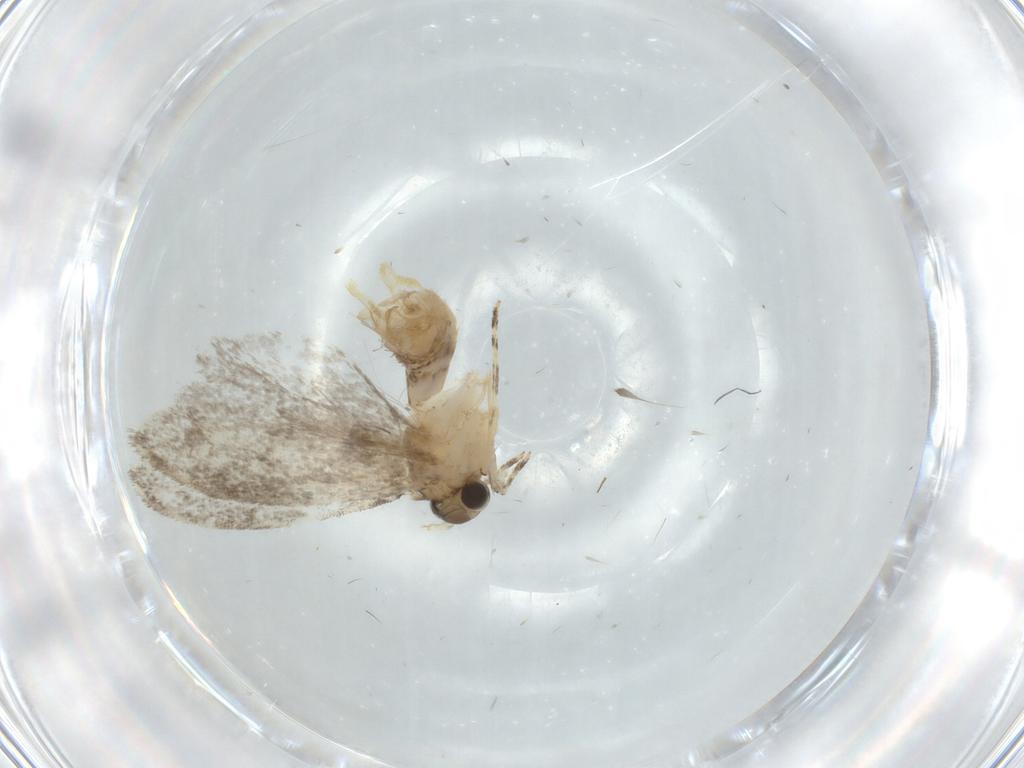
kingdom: Animalia
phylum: Arthropoda
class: Insecta
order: Lepidoptera
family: Tineidae
